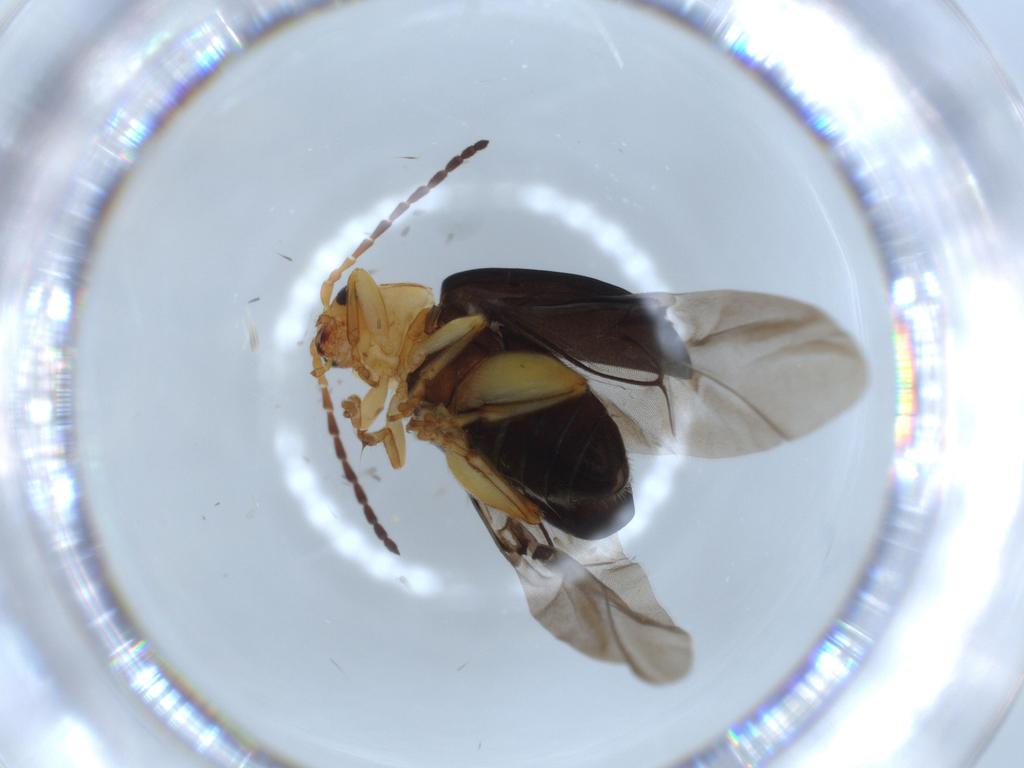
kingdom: Animalia
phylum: Arthropoda
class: Insecta
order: Coleoptera
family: Chrysomelidae
